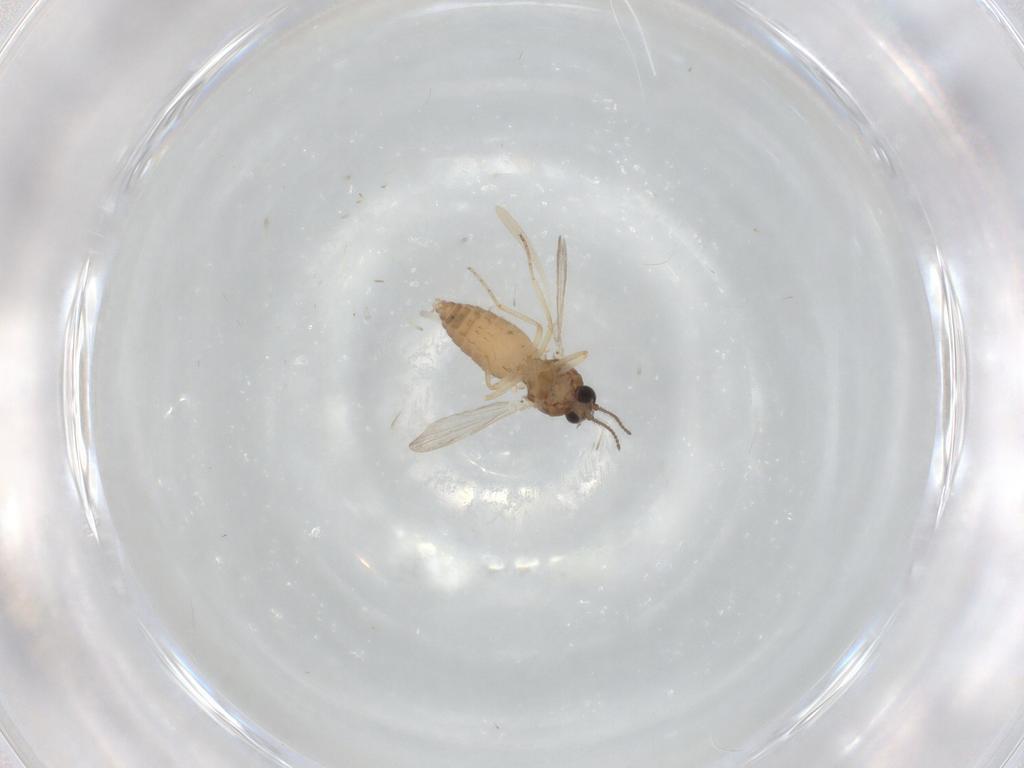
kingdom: Animalia
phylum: Arthropoda
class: Insecta
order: Diptera
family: Ceratopogonidae
